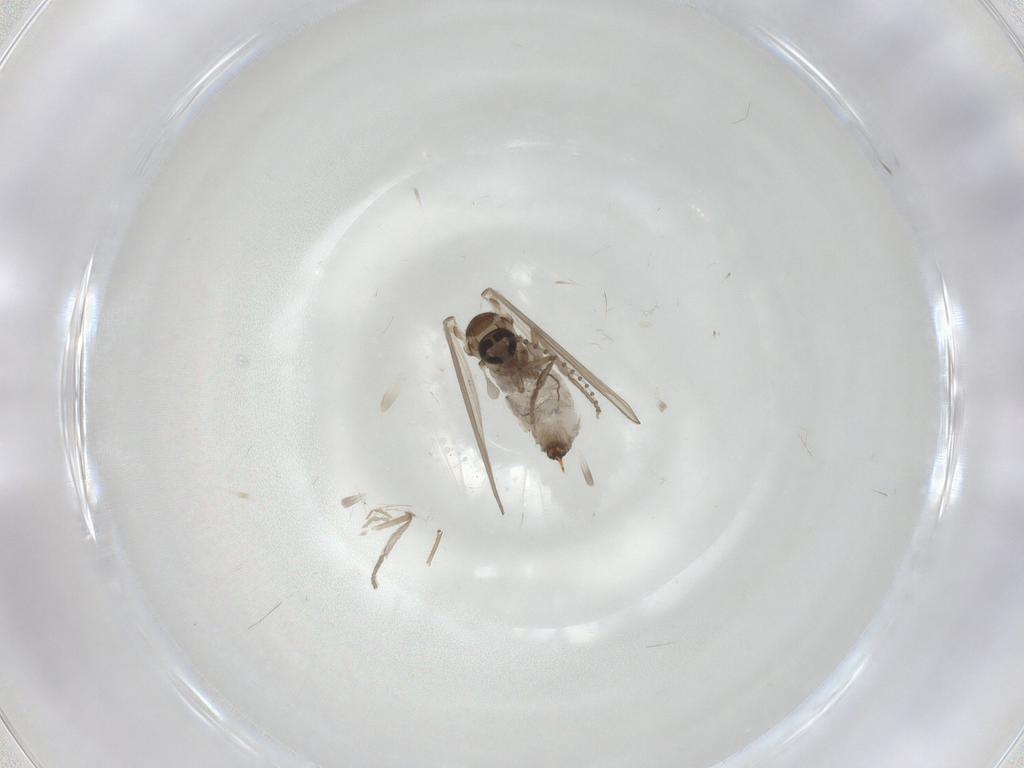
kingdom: Animalia
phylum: Arthropoda
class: Insecta
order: Diptera
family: Psychodidae
